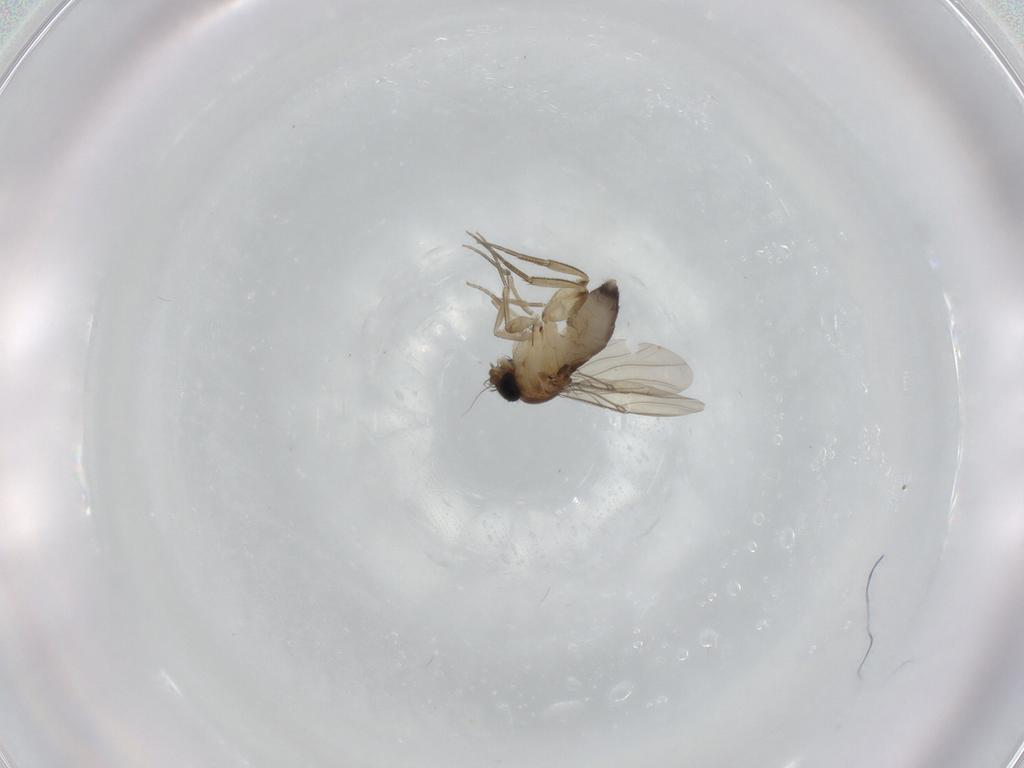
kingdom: Animalia
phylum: Arthropoda
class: Insecta
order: Diptera
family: Phoridae
